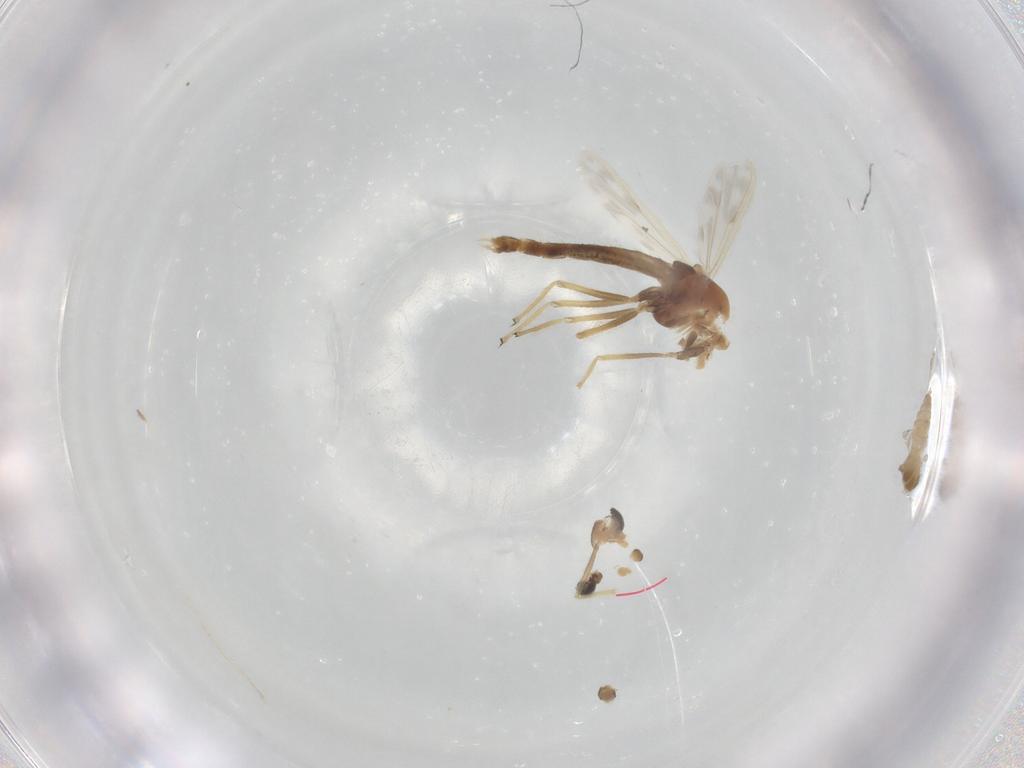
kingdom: Animalia
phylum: Arthropoda
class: Insecta
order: Diptera
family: Chironomidae
